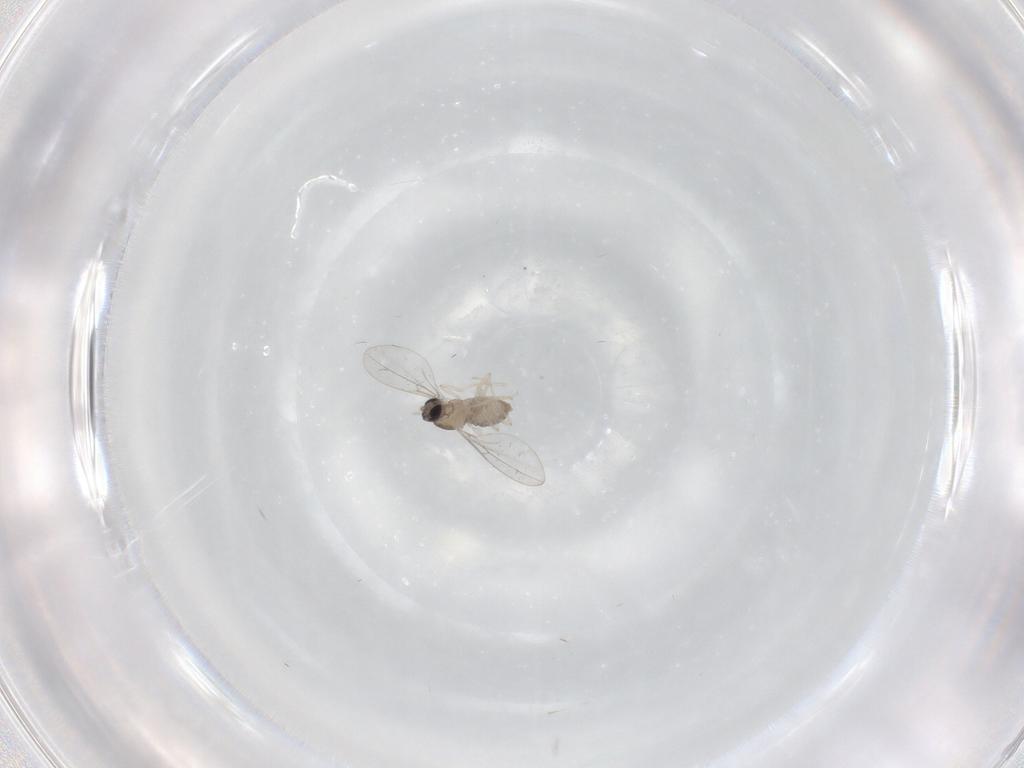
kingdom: Animalia
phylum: Arthropoda
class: Insecta
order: Diptera
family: Cecidomyiidae
